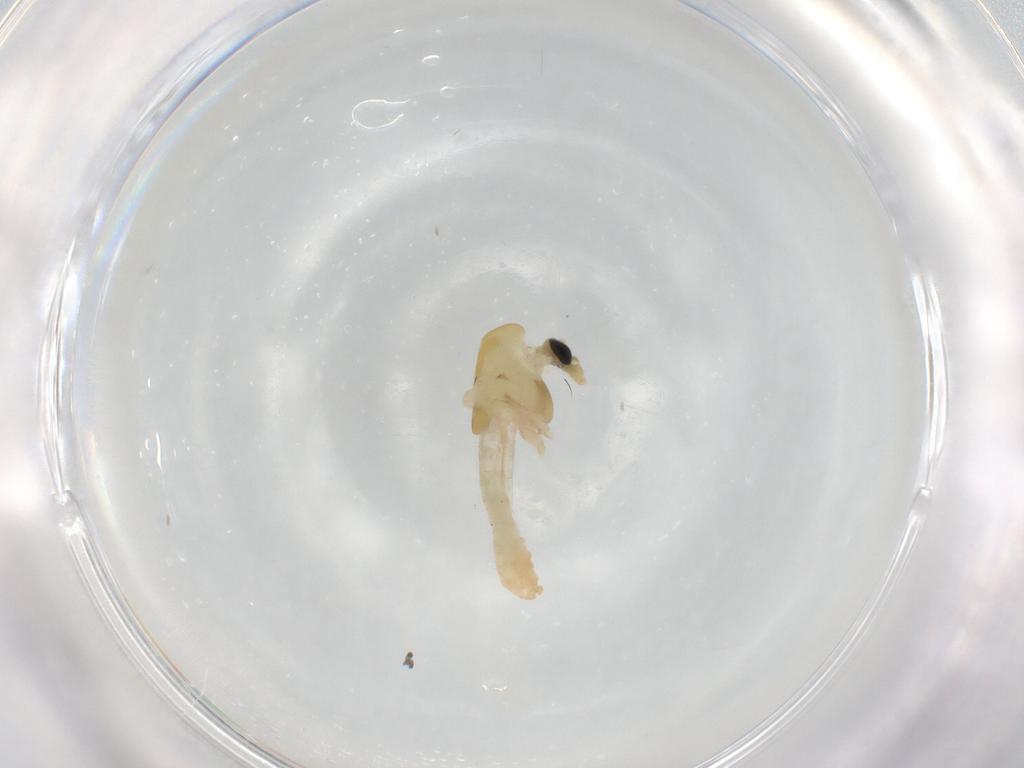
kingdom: Animalia
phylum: Arthropoda
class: Insecta
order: Diptera
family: Chironomidae
